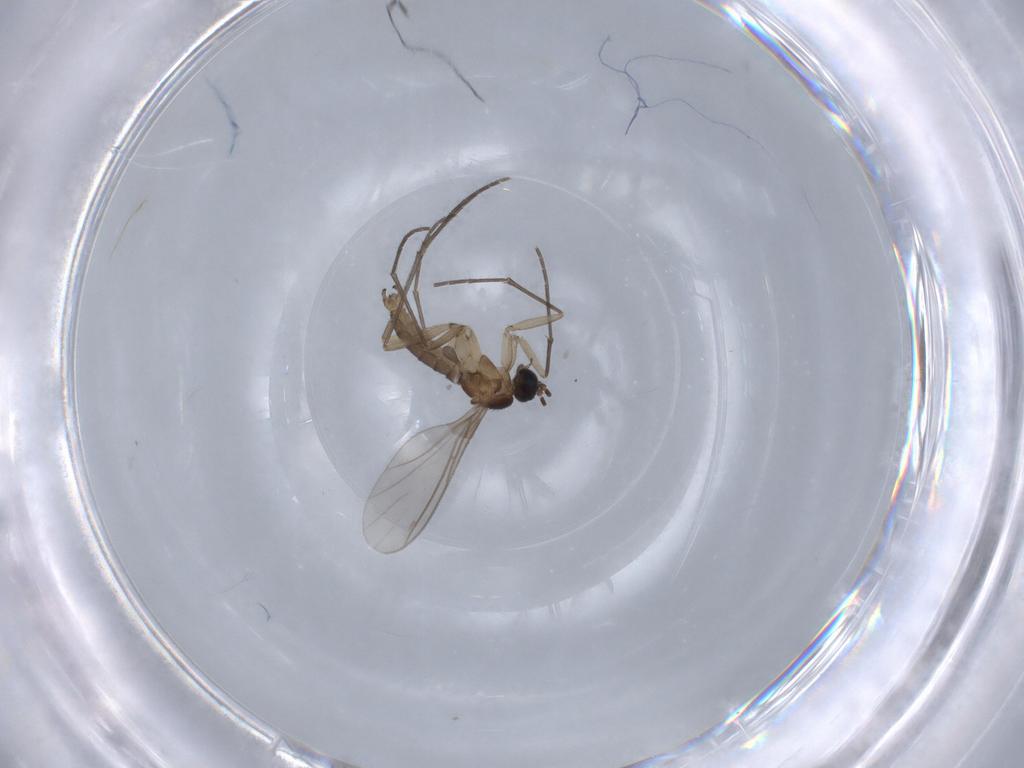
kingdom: Animalia
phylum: Arthropoda
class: Insecta
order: Diptera
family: Sciaridae
